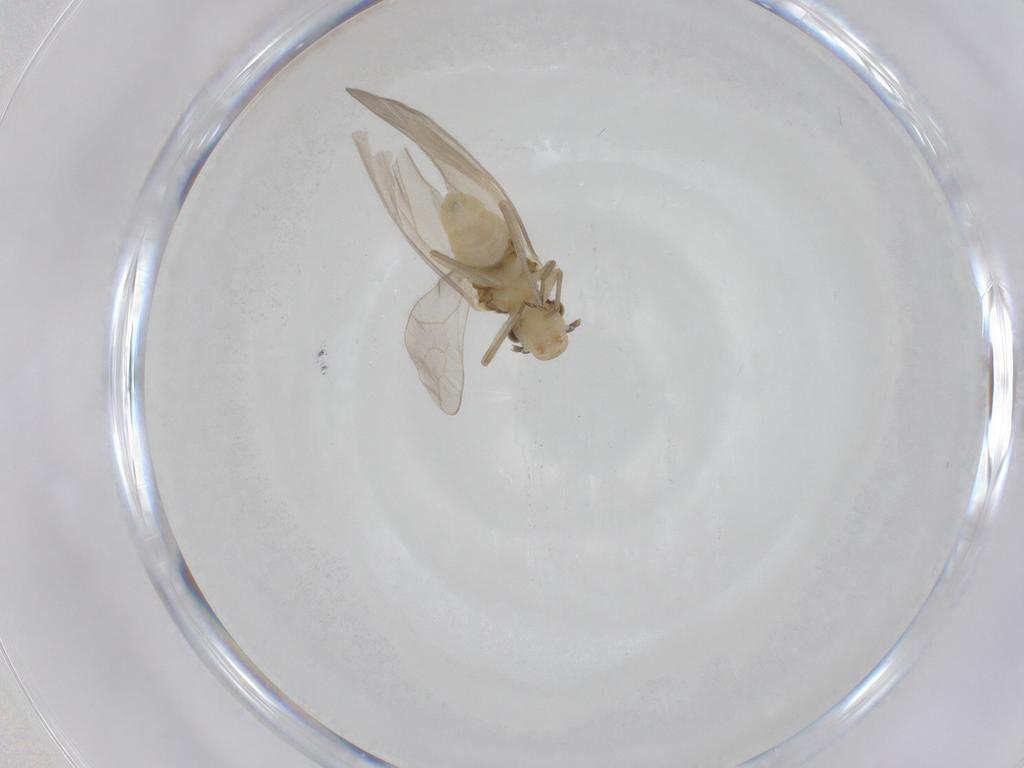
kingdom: Animalia
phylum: Arthropoda
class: Insecta
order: Psocodea
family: Caeciliusidae
